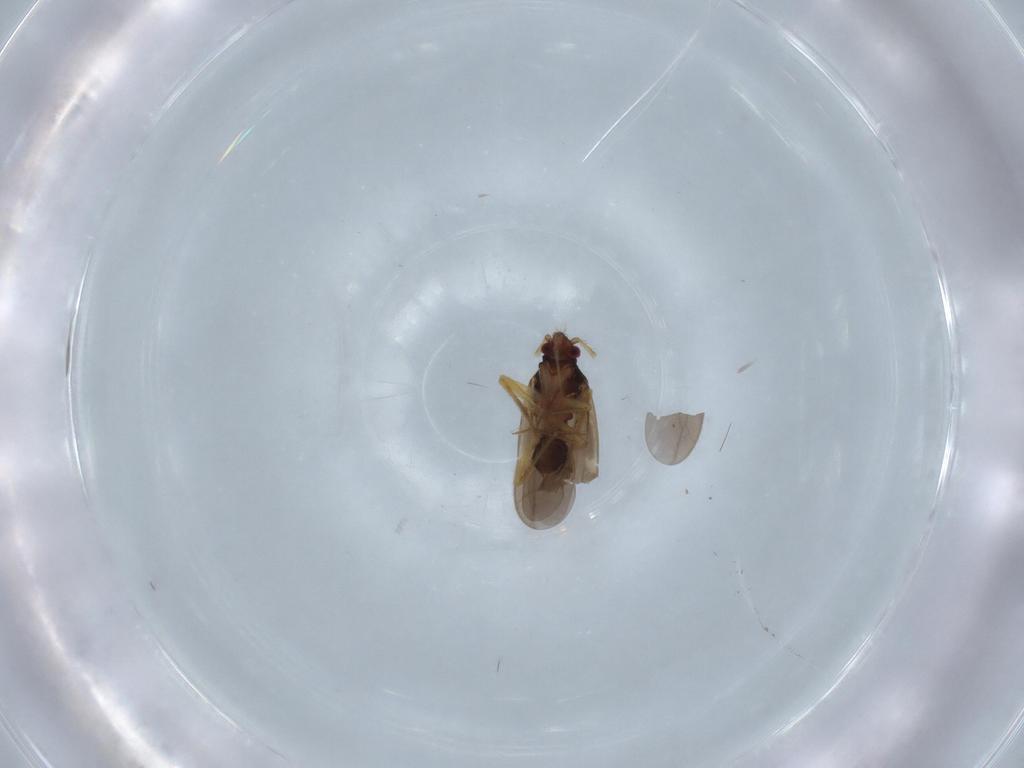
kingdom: Animalia
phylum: Arthropoda
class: Insecta
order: Hemiptera
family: Ceratocombidae
